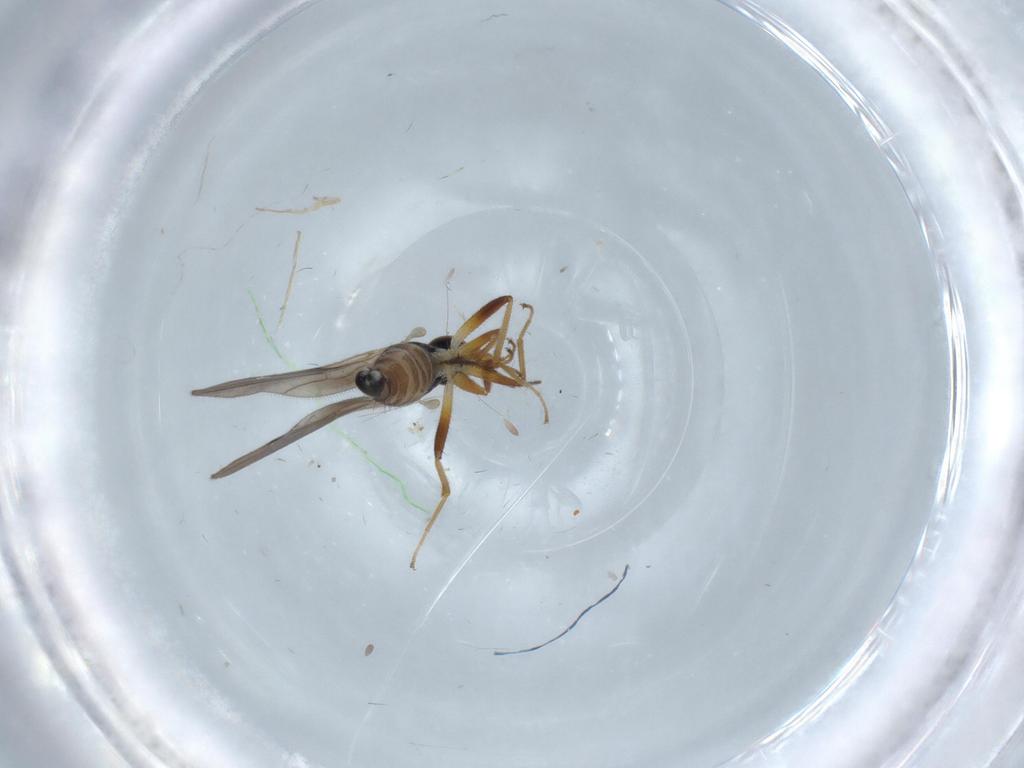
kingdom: Animalia
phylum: Arthropoda
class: Insecta
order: Diptera
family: Hybotidae
